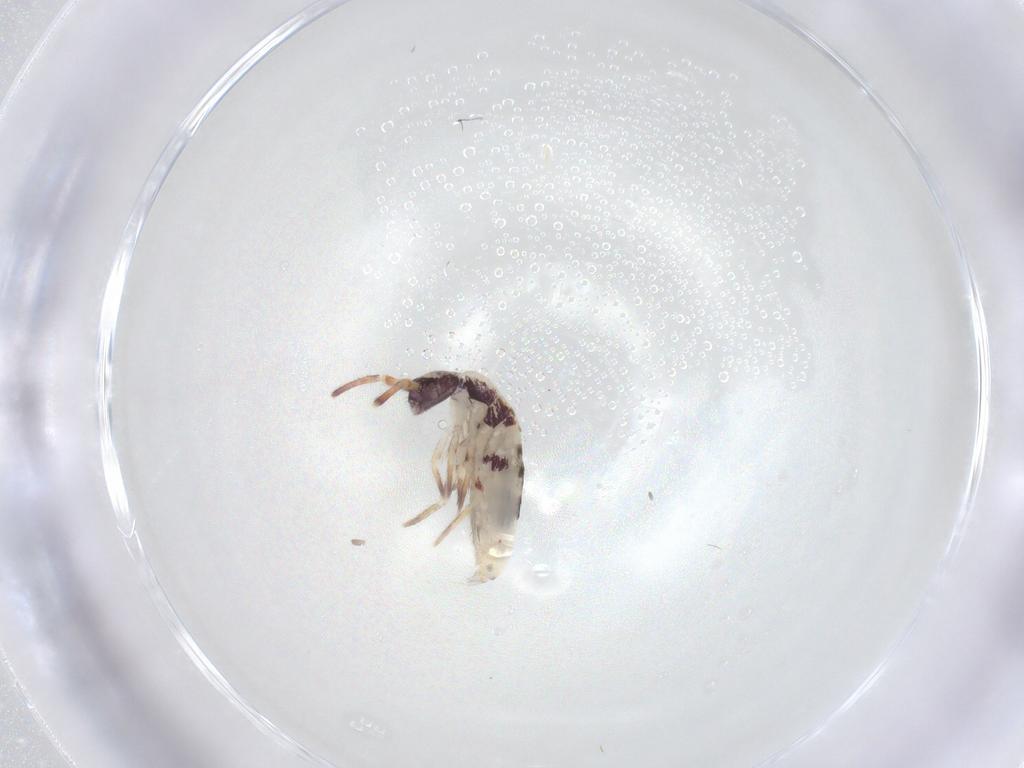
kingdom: Animalia
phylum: Arthropoda
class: Collembola
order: Entomobryomorpha
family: Entomobryidae
